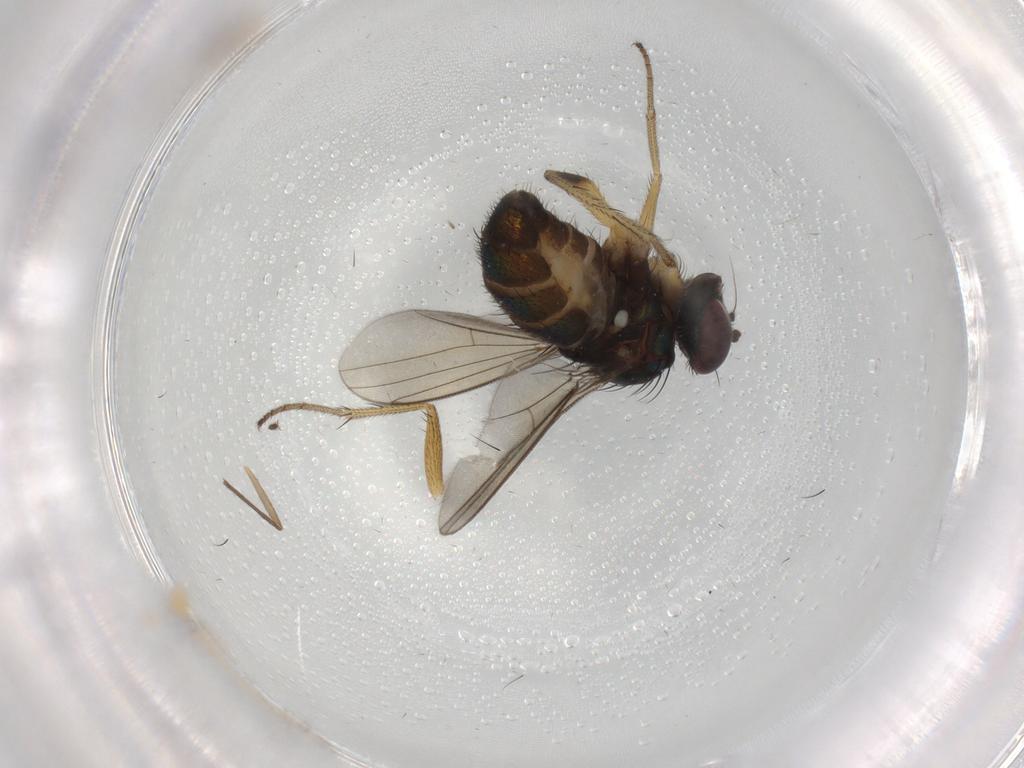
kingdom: Animalia
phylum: Arthropoda
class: Insecta
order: Diptera
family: Dolichopodidae
